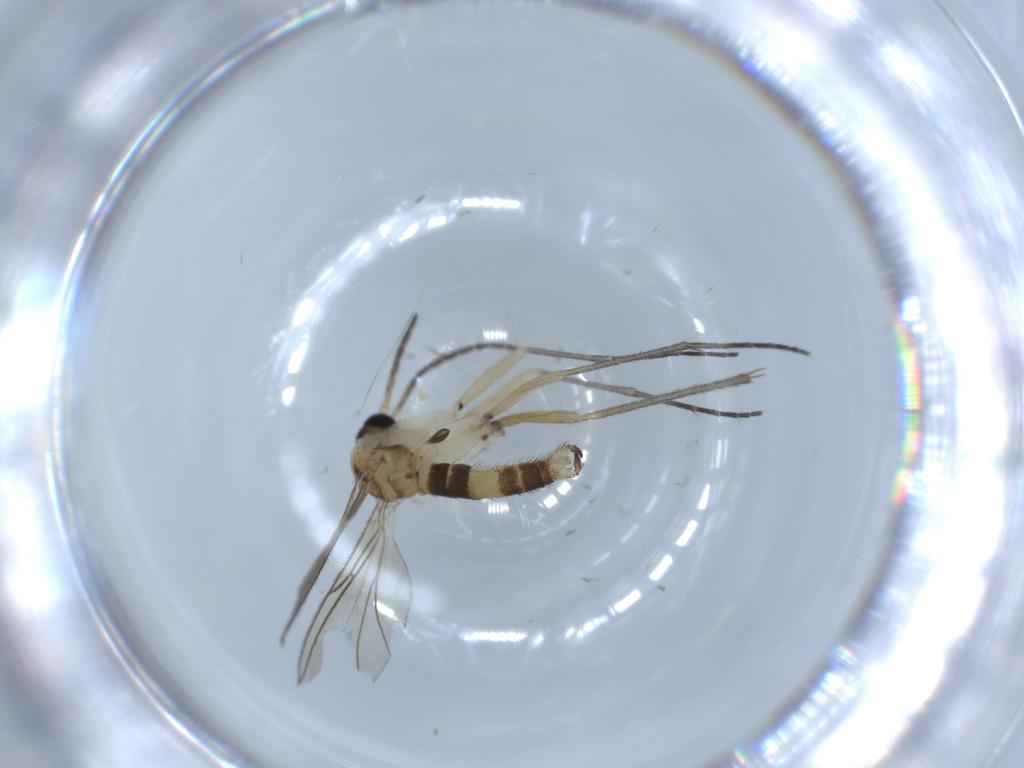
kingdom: Animalia
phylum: Arthropoda
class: Insecta
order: Diptera
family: Sciaridae
